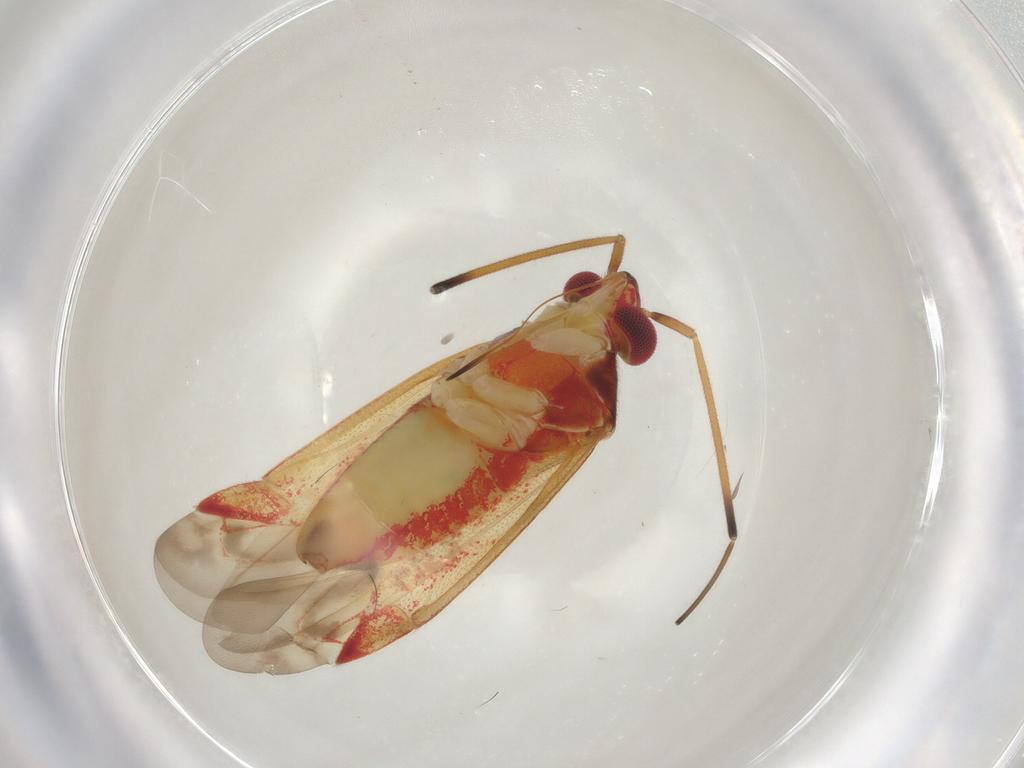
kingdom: Animalia
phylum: Arthropoda
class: Insecta
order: Hemiptera
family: Miridae
